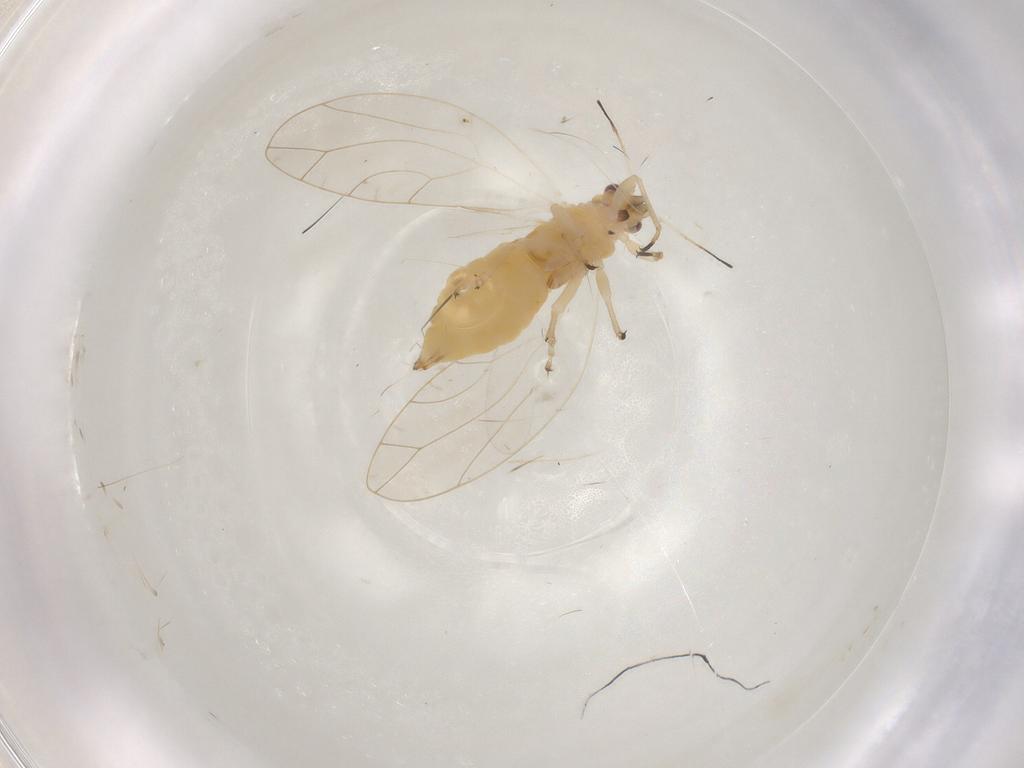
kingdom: Animalia
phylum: Arthropoda
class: Insecta
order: Hemiptera
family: Triozidae
